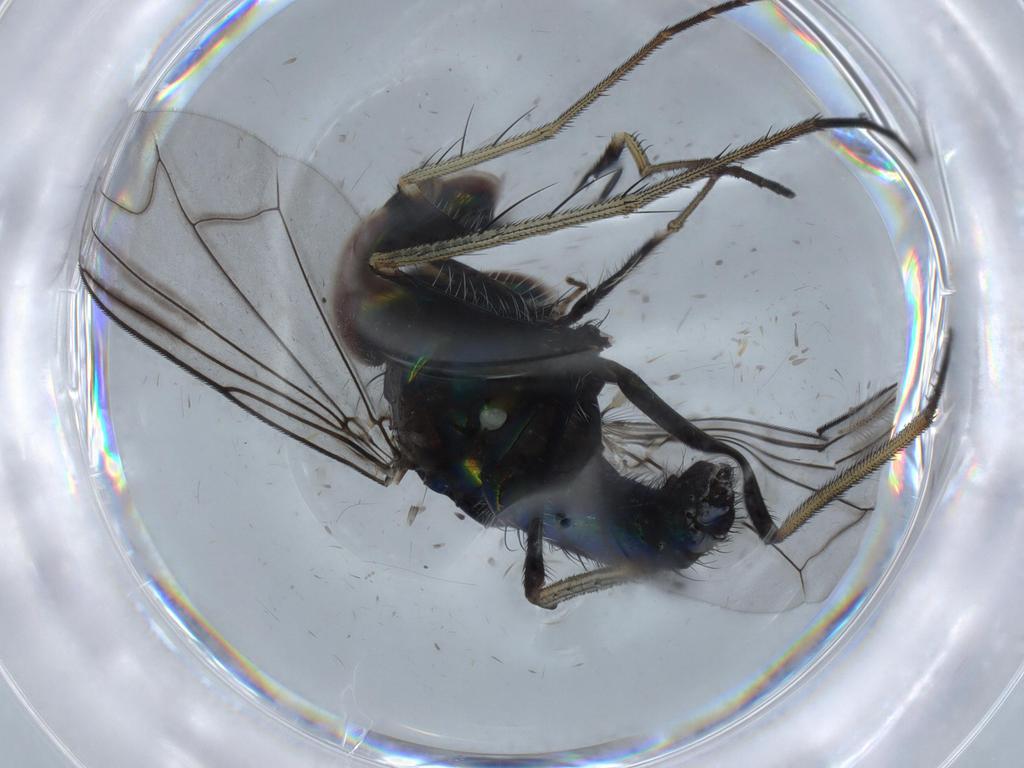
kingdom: Animalia
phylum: Arthropoda
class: Insecta
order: Diptera
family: Dolichopodidae
